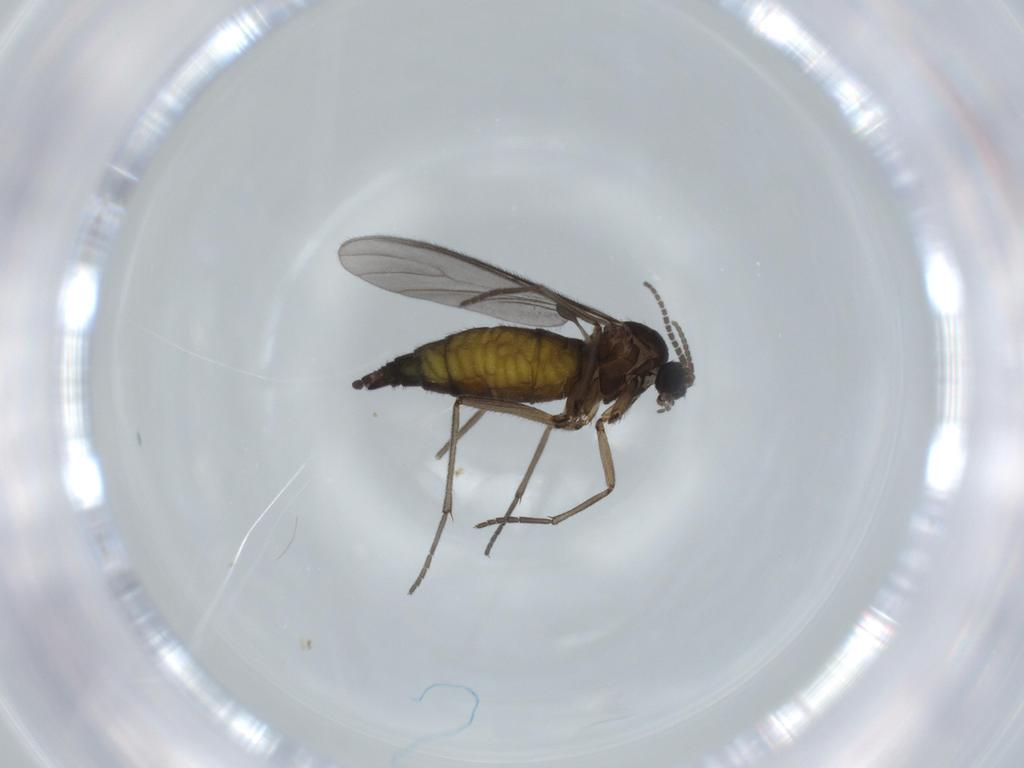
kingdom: Animalia
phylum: Arthropoda
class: Insecta
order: Diptera
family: Sciaridae
